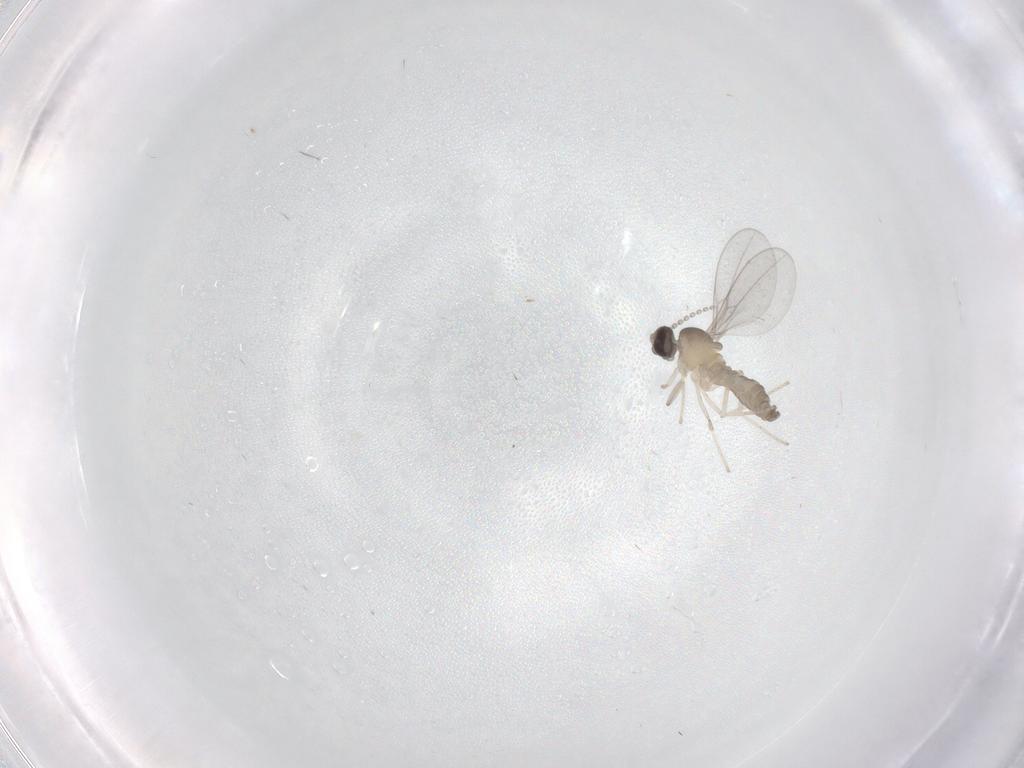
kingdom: Animalia
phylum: Arthropoda
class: Insecta
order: Diptera
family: Cecidomyiidae
